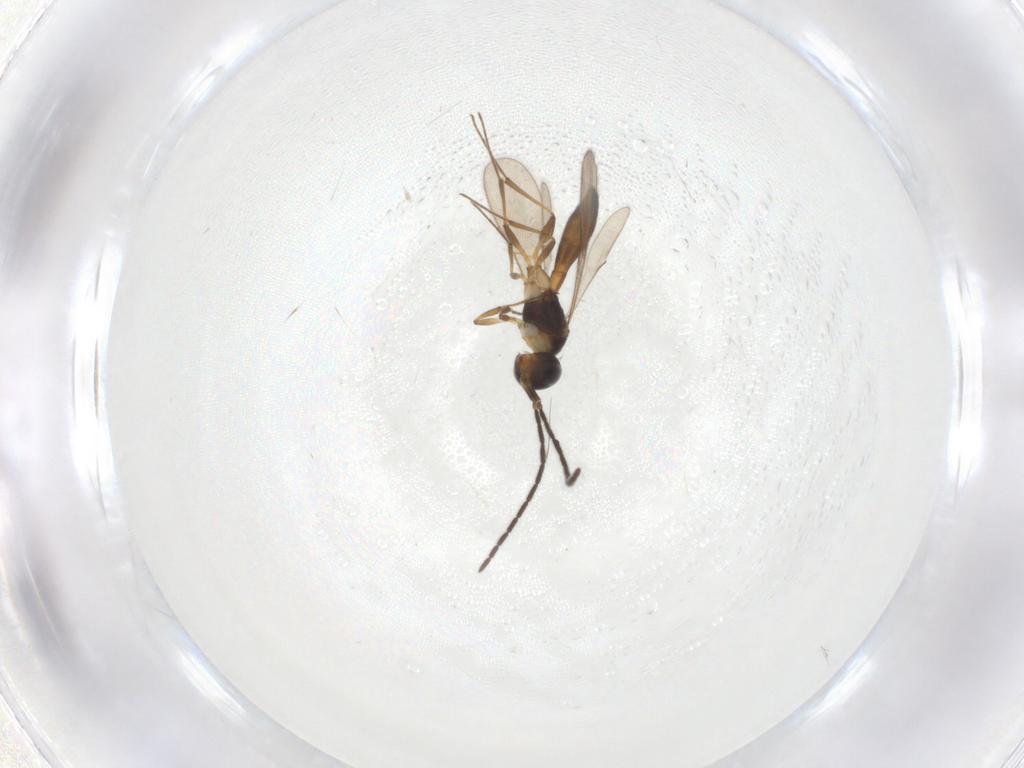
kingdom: Animalia
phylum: Arthropoda
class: Insecta
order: Hymenoptera
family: Scelionidae
